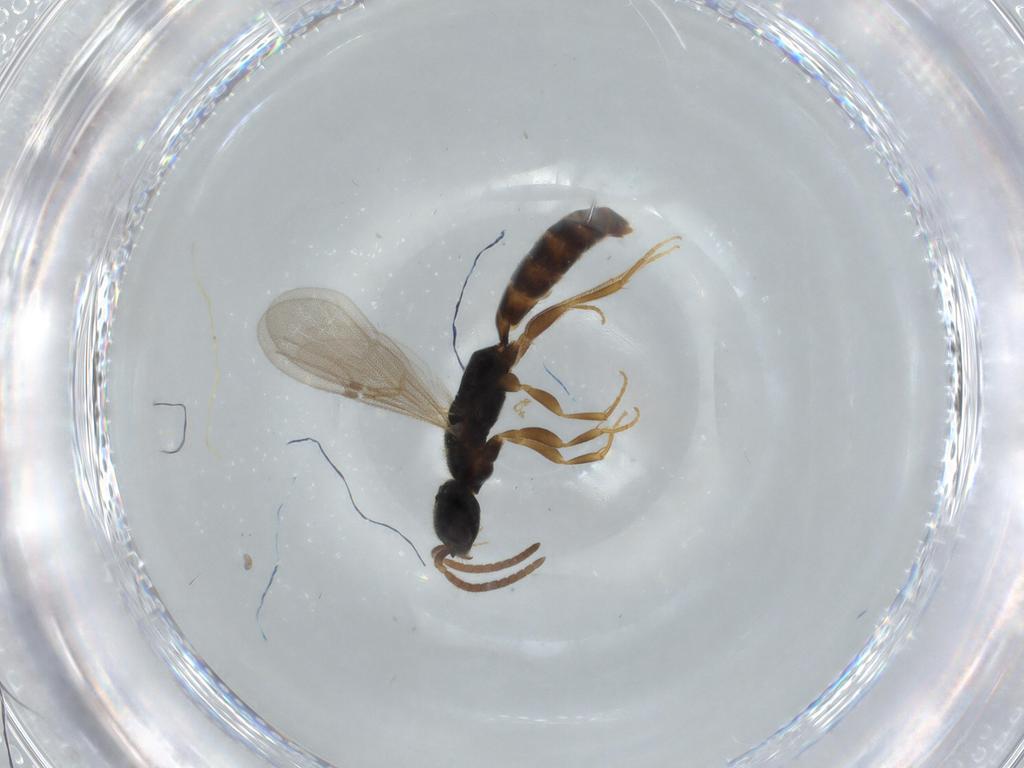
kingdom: Animalia
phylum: Arthropoda
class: Insecta
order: Hymenoptera
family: Bethylidae
